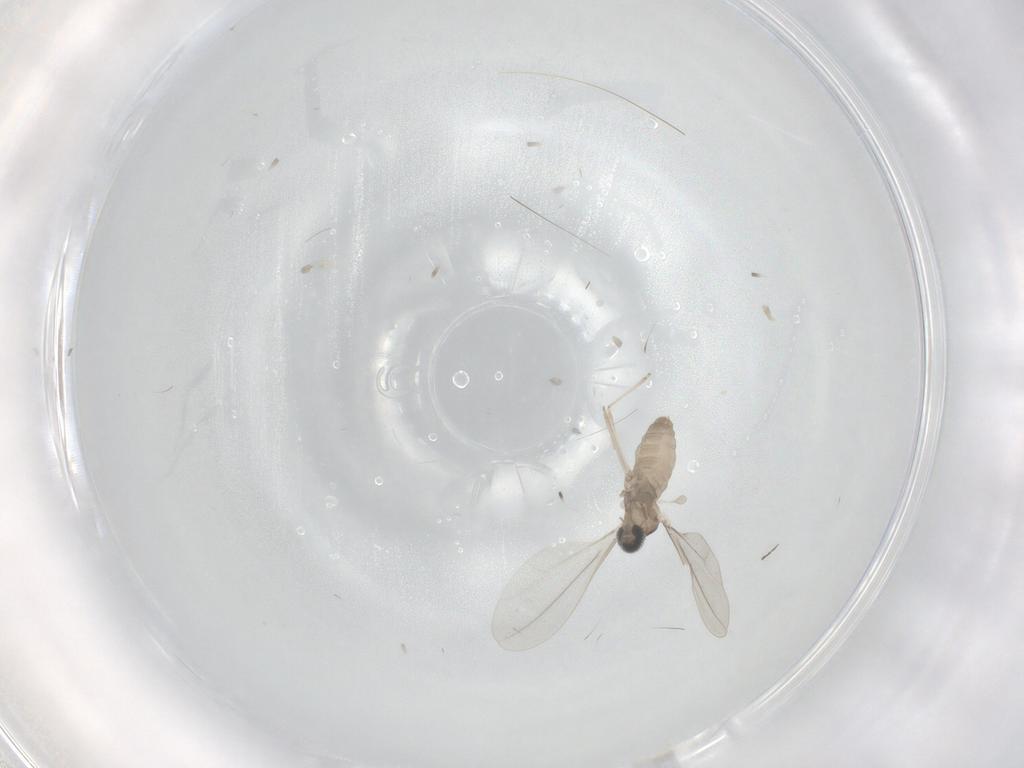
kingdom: Animalia
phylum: Arthropoda
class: Insecta
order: Diptera
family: Cecidomyiidae
